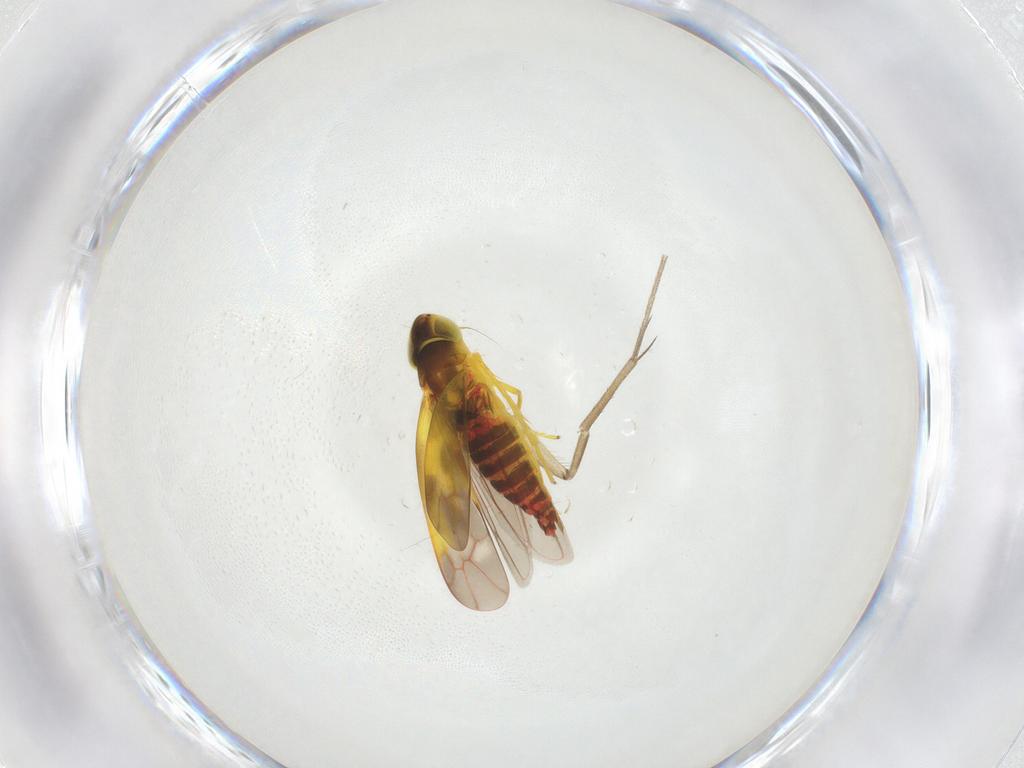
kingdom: Animalia
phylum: Arthropoda
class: Insecta
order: Hemiptera
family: Cicadellidae
